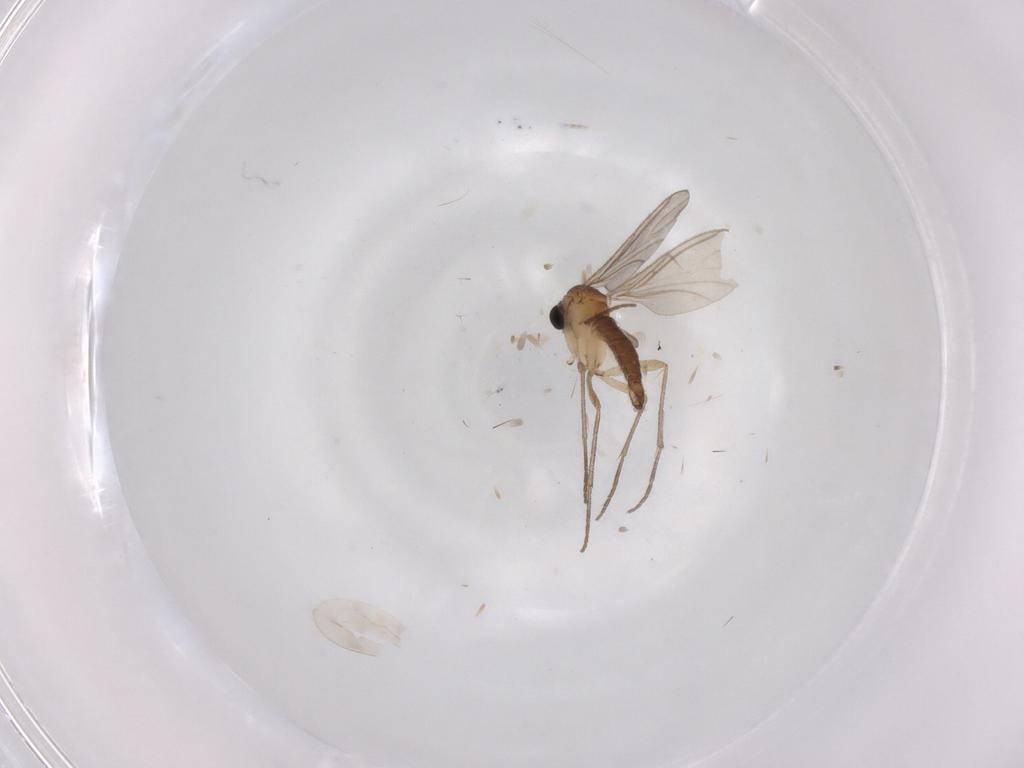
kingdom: Animalia
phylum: Arthropoda
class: Insecta
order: Diptera
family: Sciaridae
